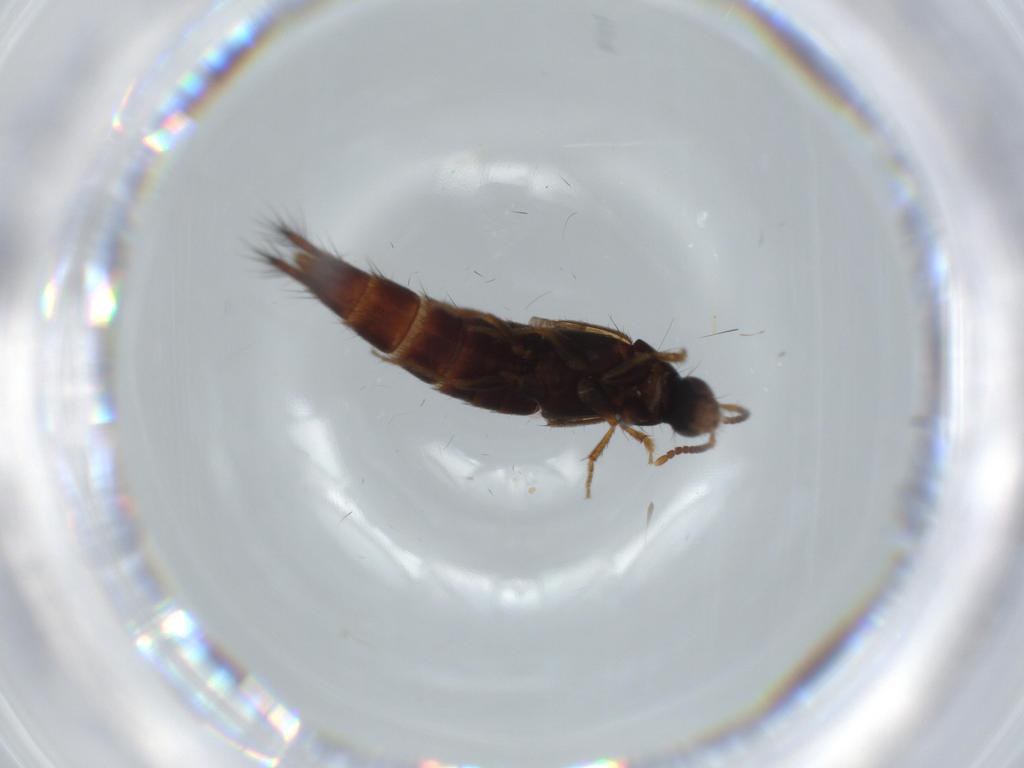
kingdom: Animalia
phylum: Arthropoda
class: Insecta
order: Coleoptera
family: Staphylinidae
